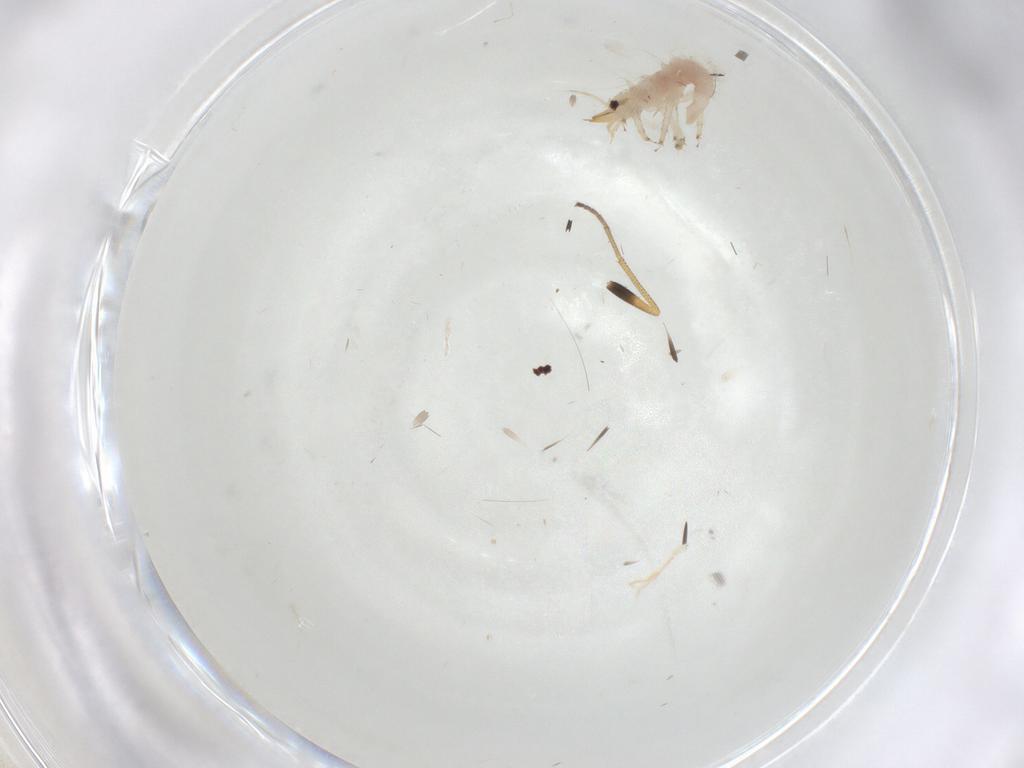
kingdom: Animalia
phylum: Arthropoda
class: Insecta
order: Neuroptera
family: Chrysopidae
